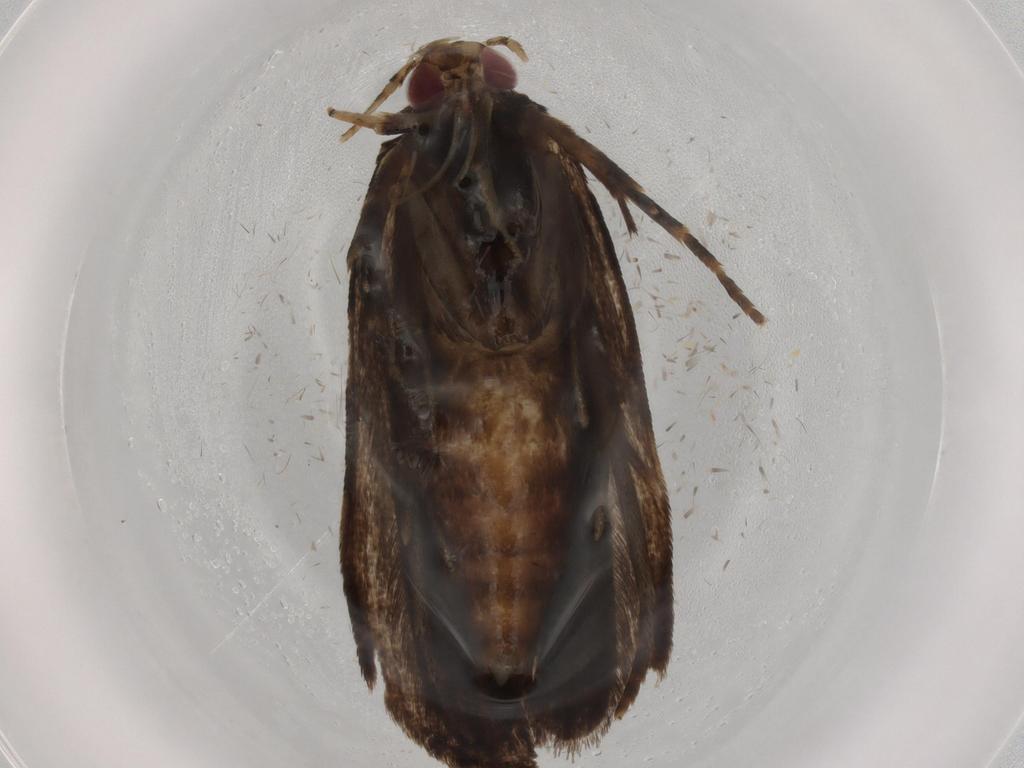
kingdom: Animalia
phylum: Arthropoda
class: Insecta
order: Lepidoptera
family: Gelechiidae
